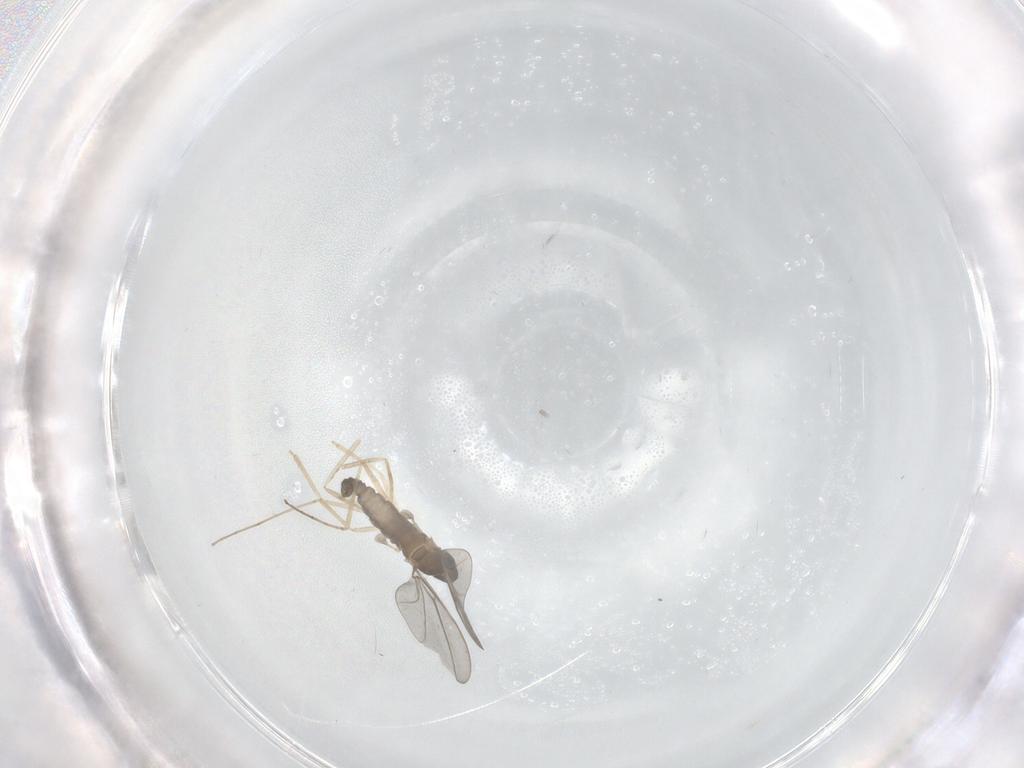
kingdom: Animalia
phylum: Arthropoda
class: Insecta
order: Diptera
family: Cecidomyiidae
